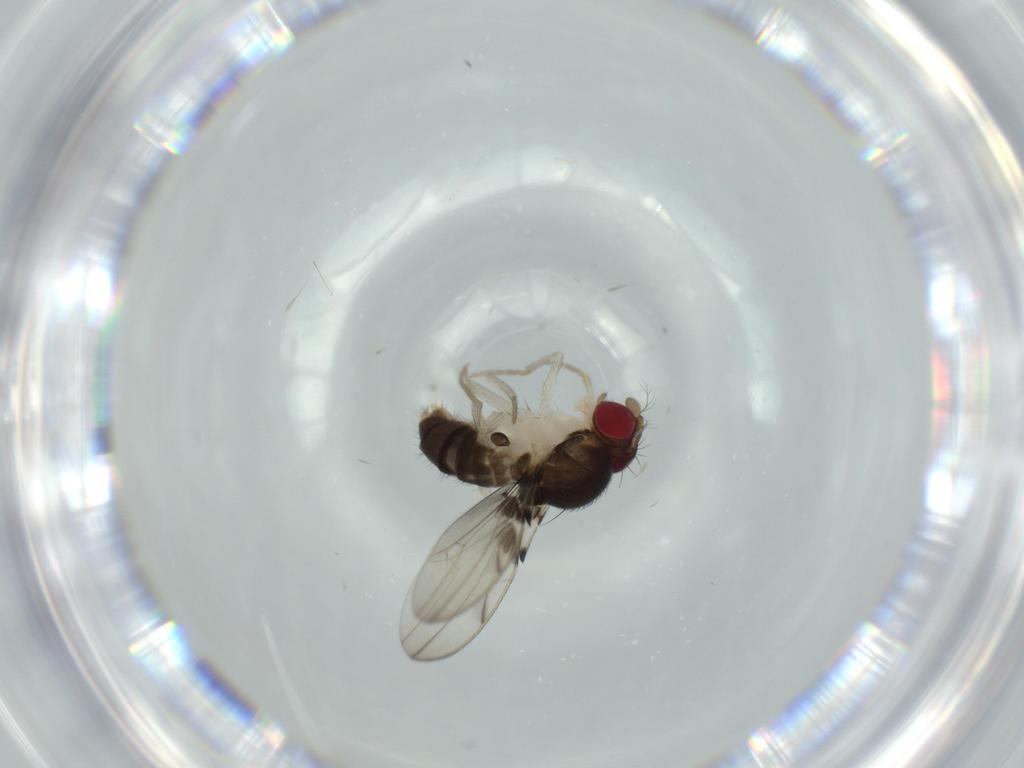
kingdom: Animalia
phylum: Arthropoda
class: Insecta
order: Diptera
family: Drosophilidae
